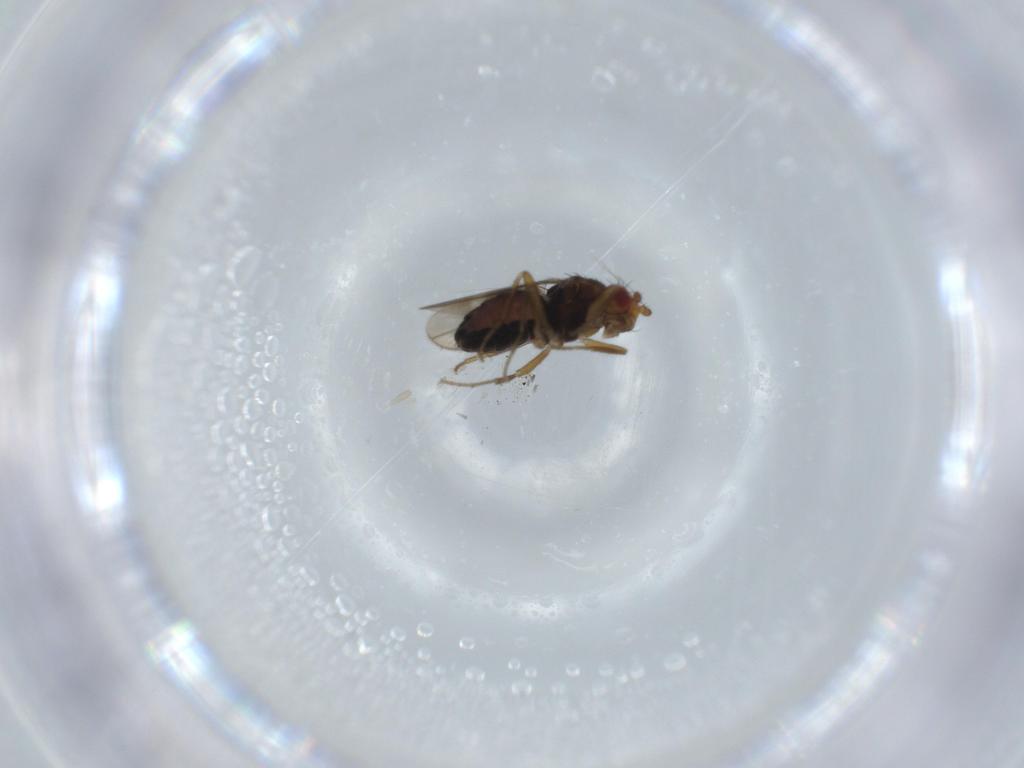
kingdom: Animalia
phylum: Arthropoda
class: Insecta
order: Diptera
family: Sphaeroceridae
